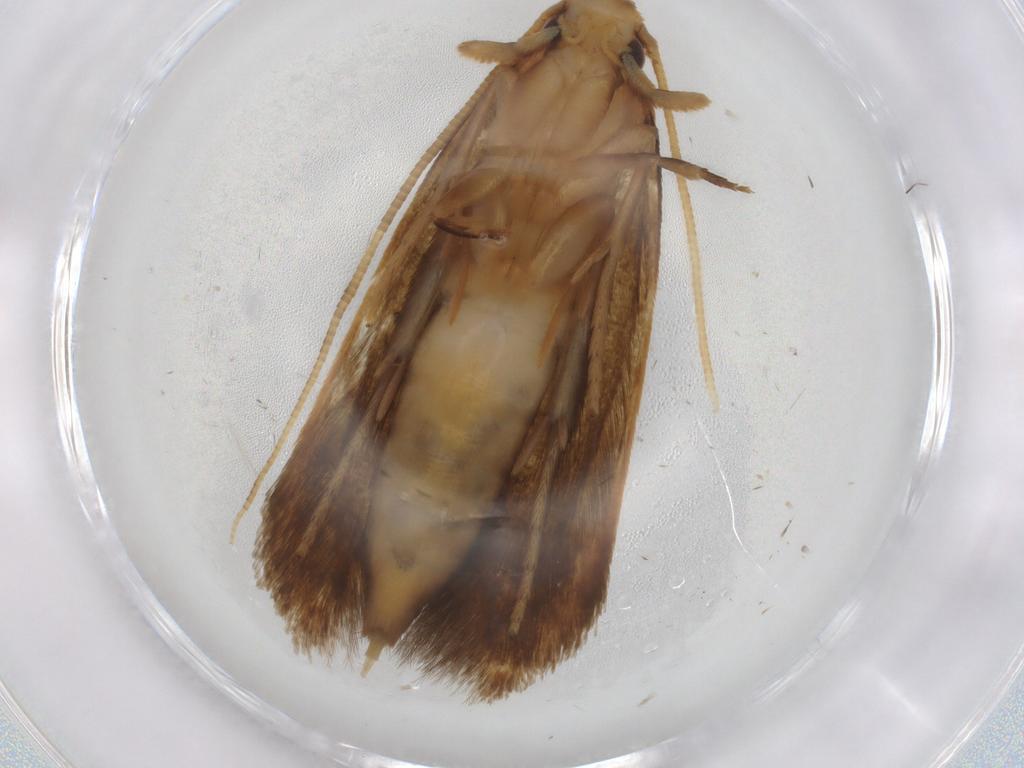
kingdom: Animalia
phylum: Arthropoda
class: Insecta
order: Lepidoptera
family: Tineidae
